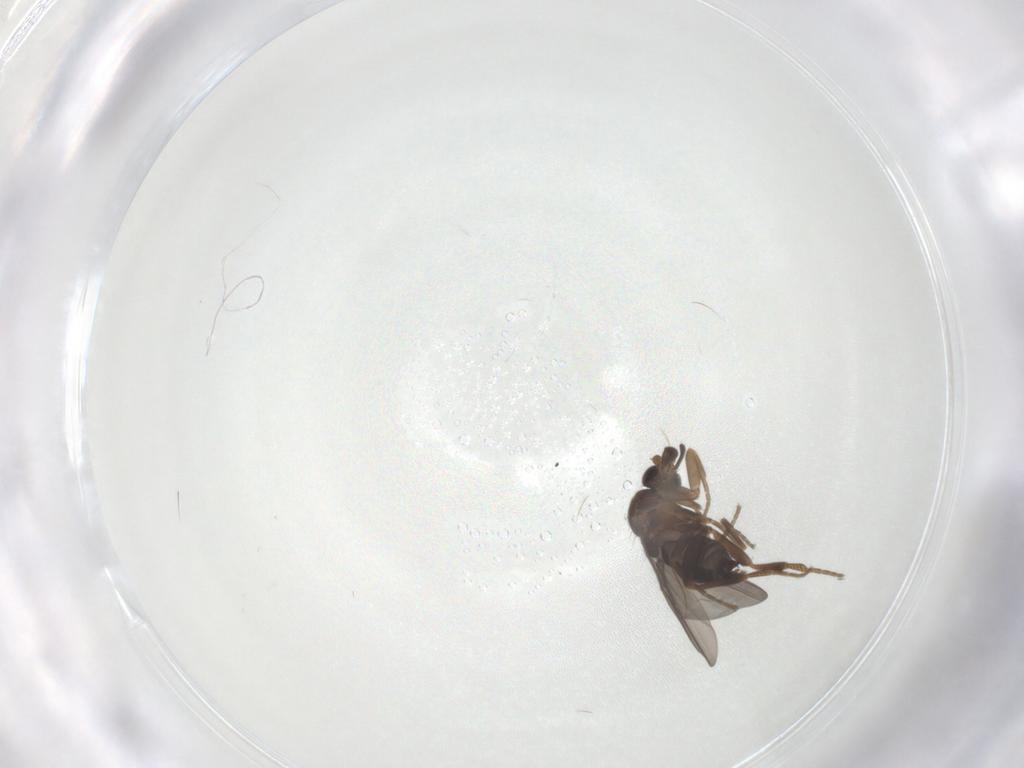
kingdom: Animalia
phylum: Arthropoda
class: Insecta
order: Diptera
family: Phoridae
